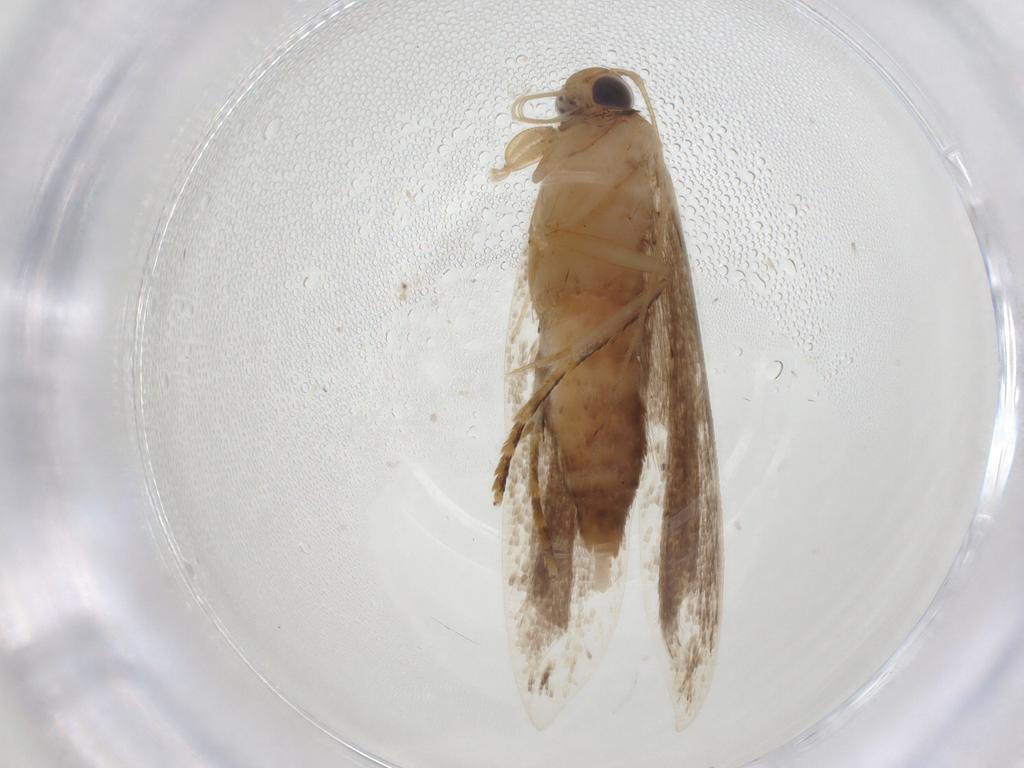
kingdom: Animalia
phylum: Arthropoda
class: Insecta
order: Lepidoptera
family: Gelechiidae
